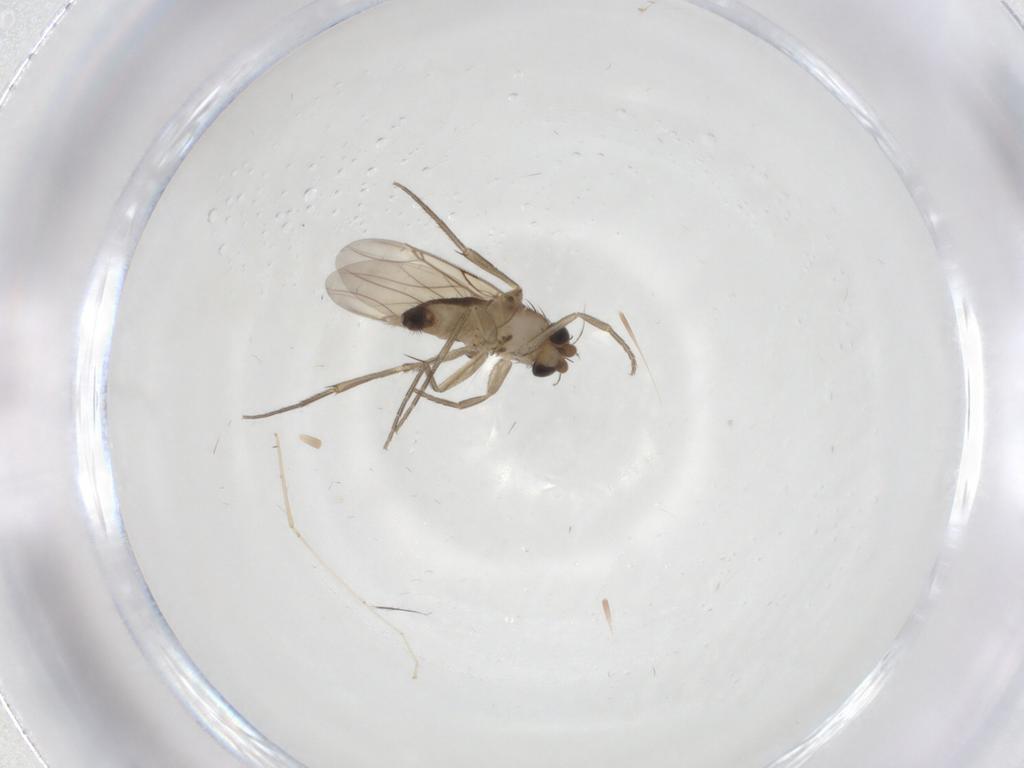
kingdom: Animalia
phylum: Arthropoda
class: Insecta
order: Diptera
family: Phoridae
